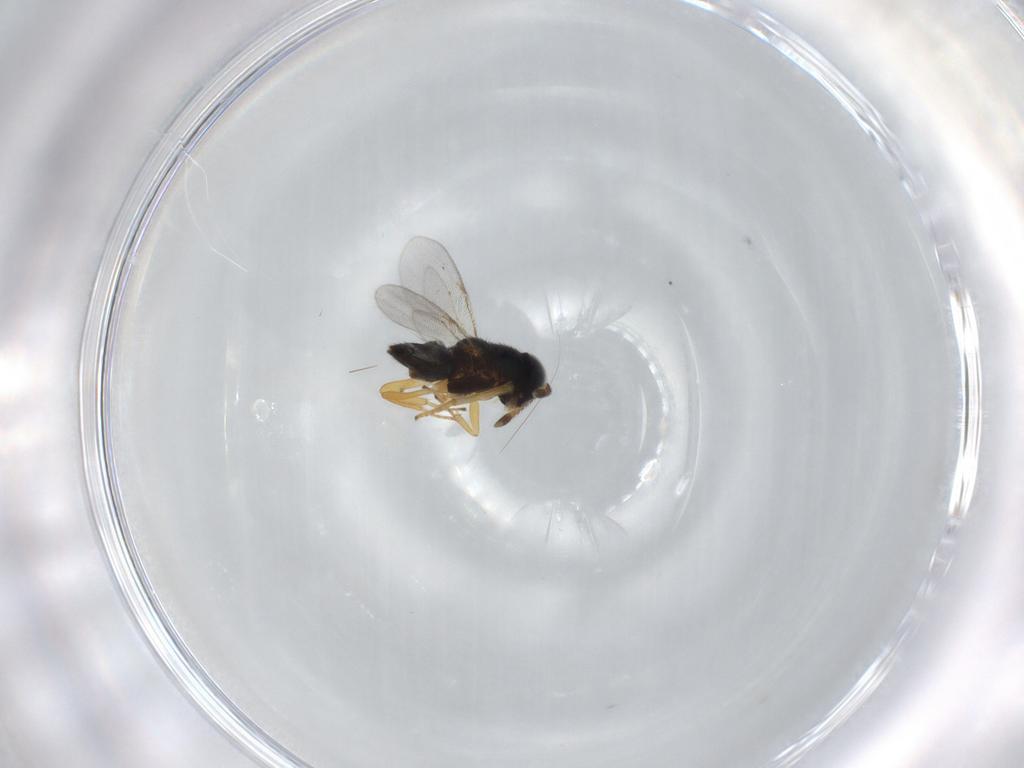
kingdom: Animalia
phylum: Arthropoda
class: Insecta
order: Hymenoptera
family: Encyrtidae
